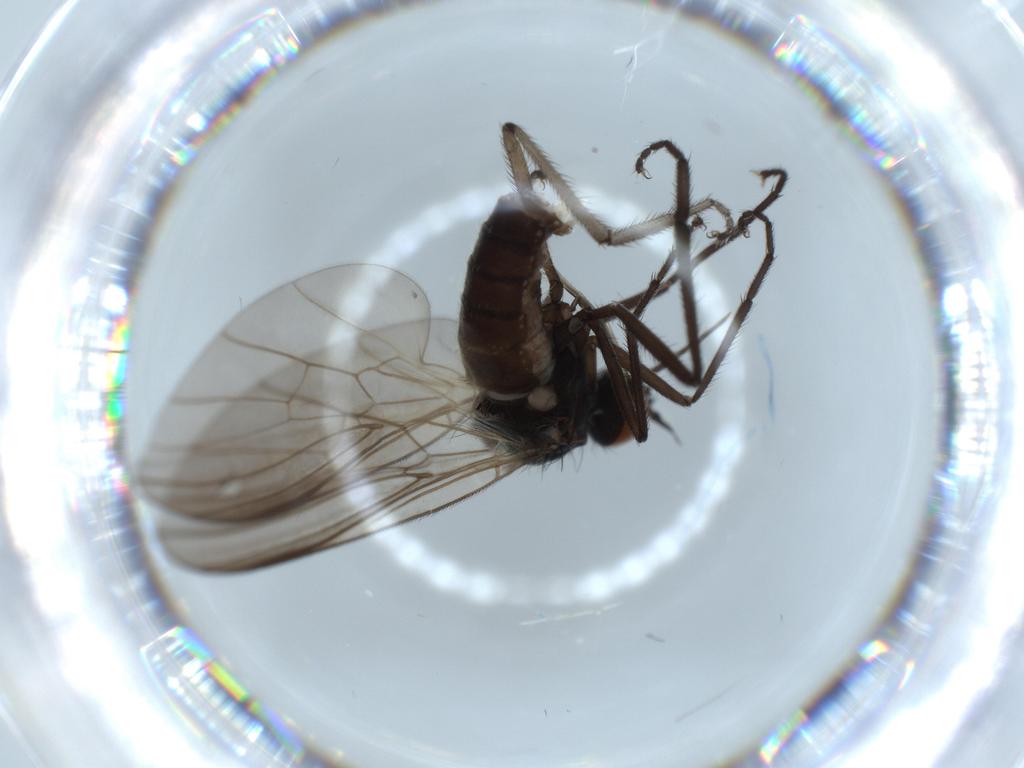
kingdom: Animalia
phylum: Arthropoda
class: Insecta
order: Diptera
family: Empididae
